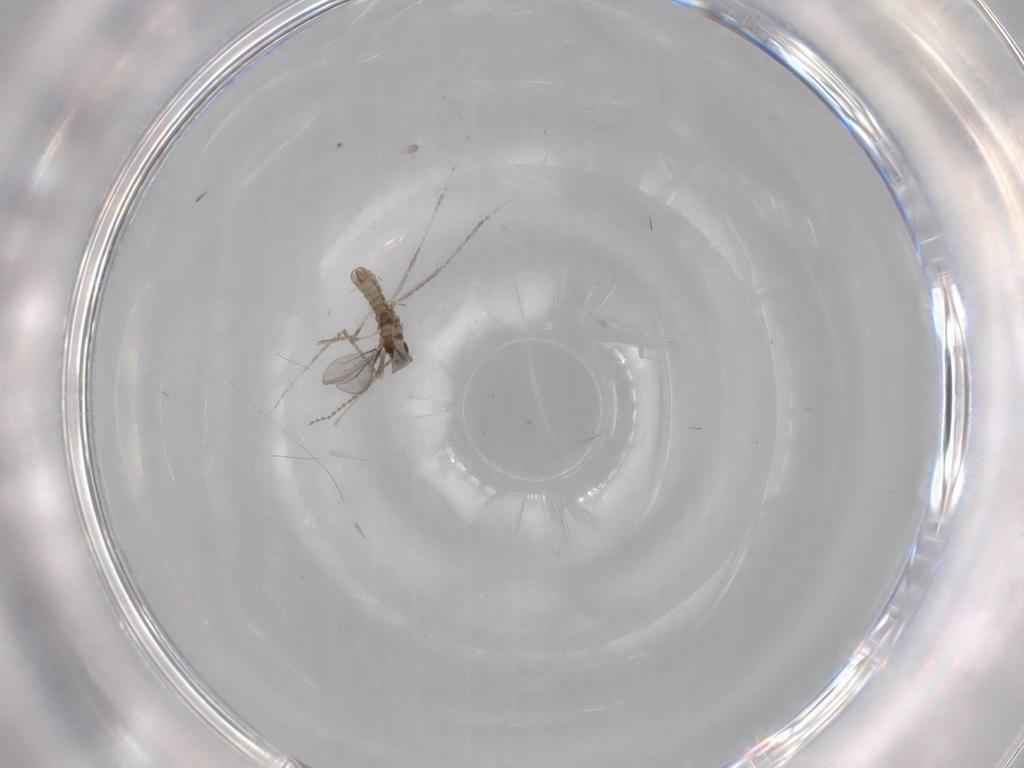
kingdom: Animalia
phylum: Arthropoda
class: Insecta
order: Diptera
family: Cecidomyiidae
